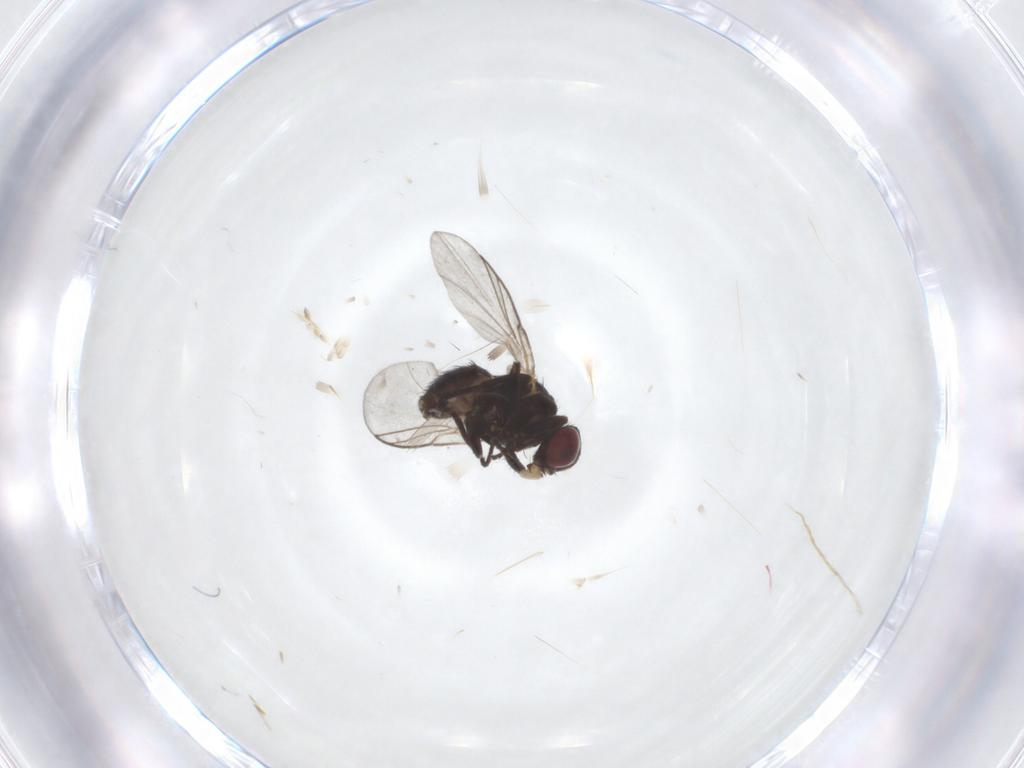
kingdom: Animalia
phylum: Arthropoda
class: Insecta
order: Diptera
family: Agromyzidae
